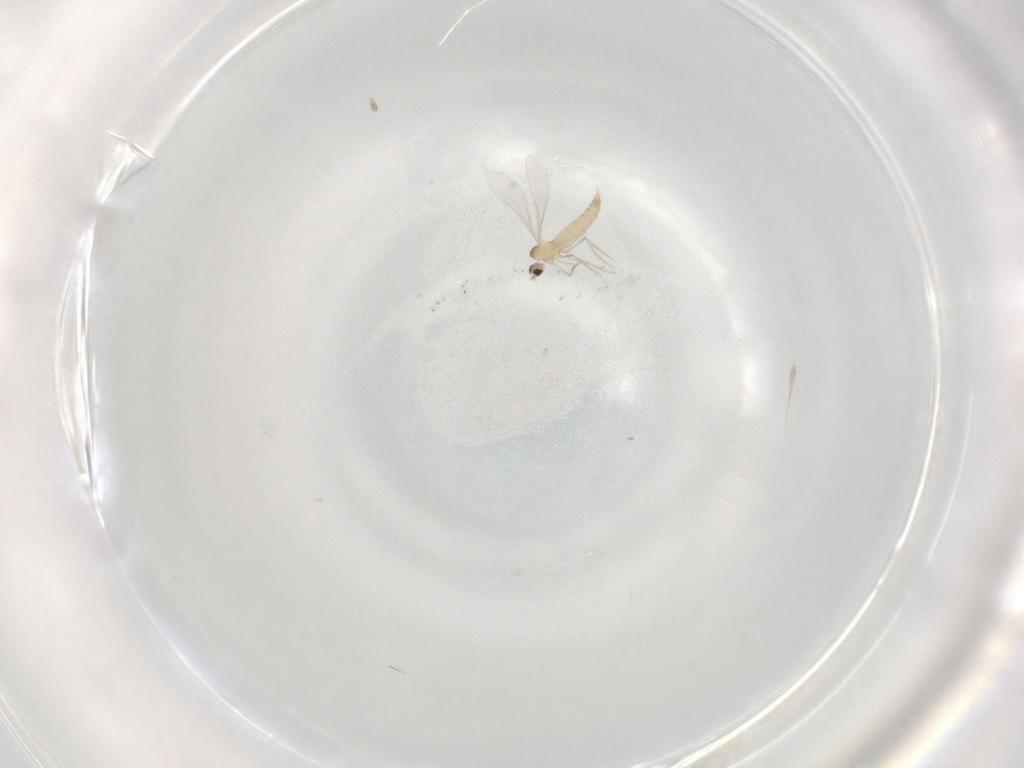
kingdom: Animalia
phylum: Arthropoda
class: Insecta
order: Diptera
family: Cecidomyiidae
